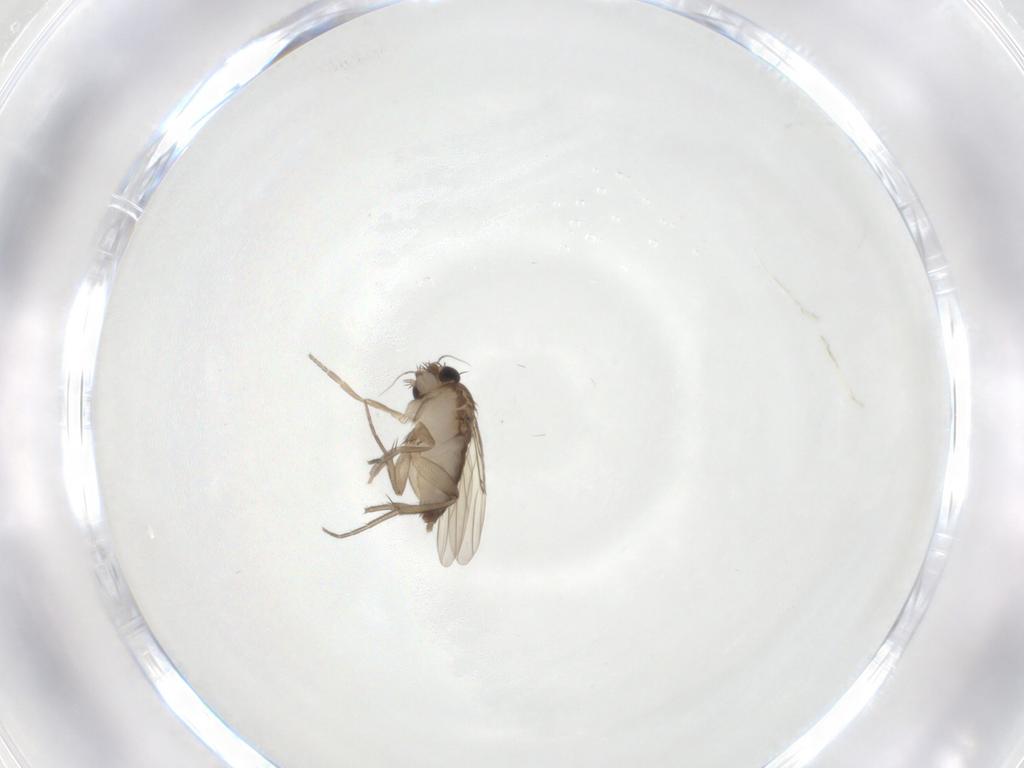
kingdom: Animalia
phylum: Arthropoda
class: Insecta
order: Diptera
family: Phoridae
